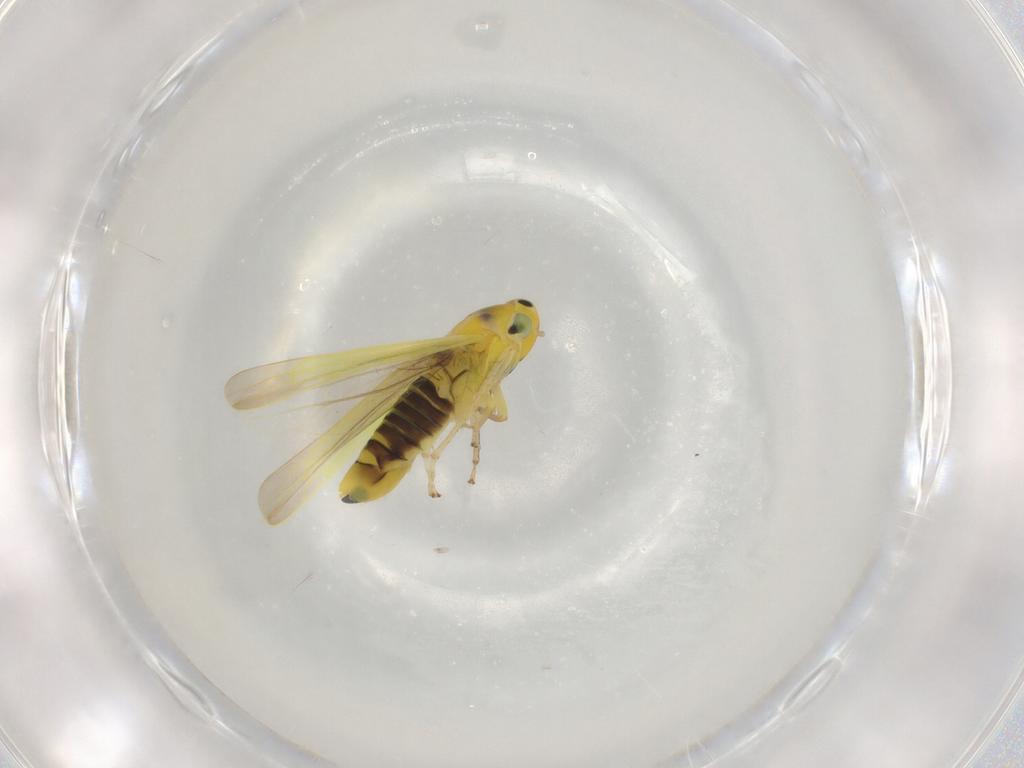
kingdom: Animalia
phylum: Arthropoda
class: Insecta
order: Hemiptera
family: Cicadellidae
